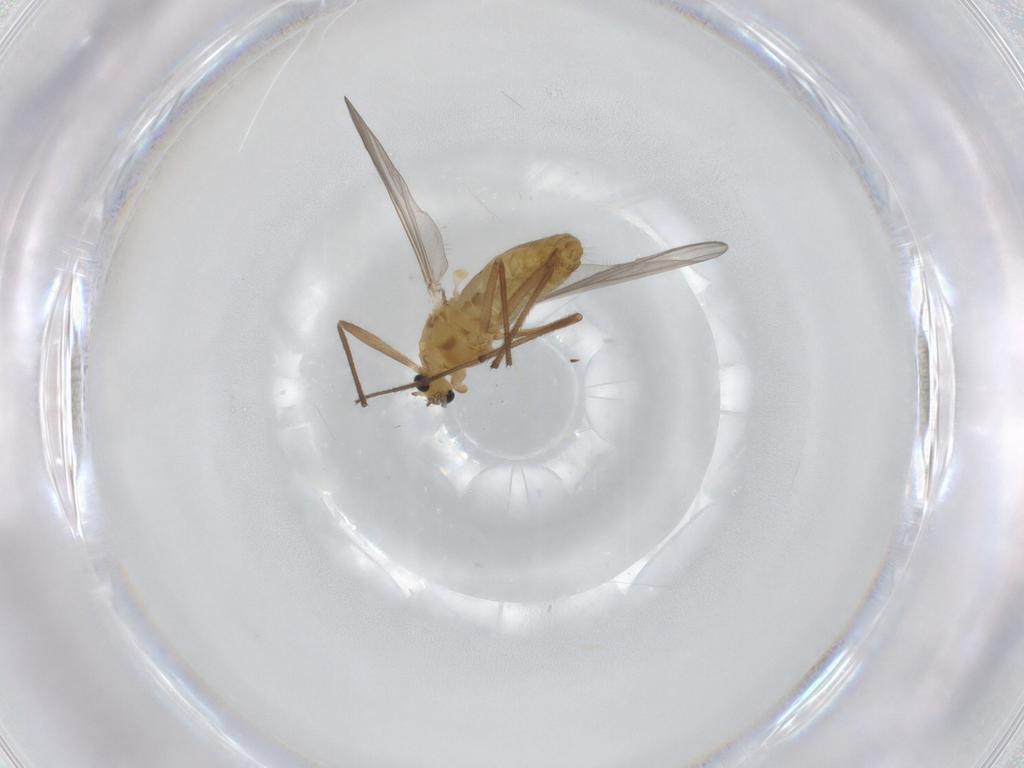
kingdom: Animalia
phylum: Arthropoda
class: Insecta
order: Diptera
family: Chironomidae
